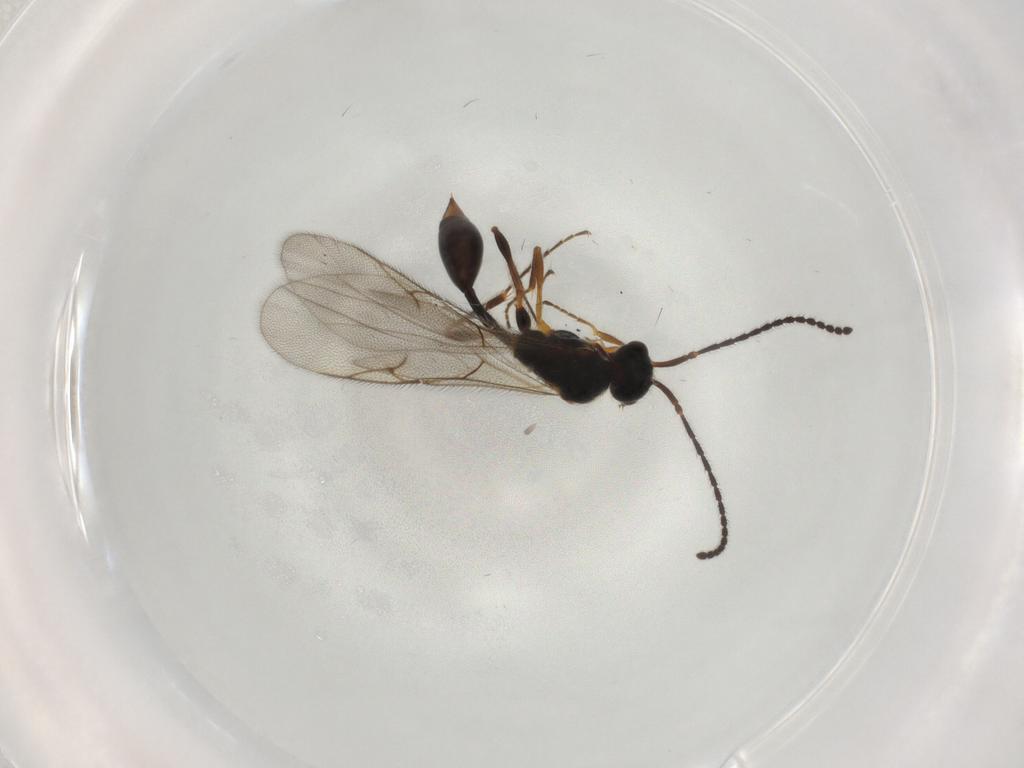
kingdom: Animalia
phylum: Arthropoda
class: Insecta
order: Hymenoptera
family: Diapriidae
